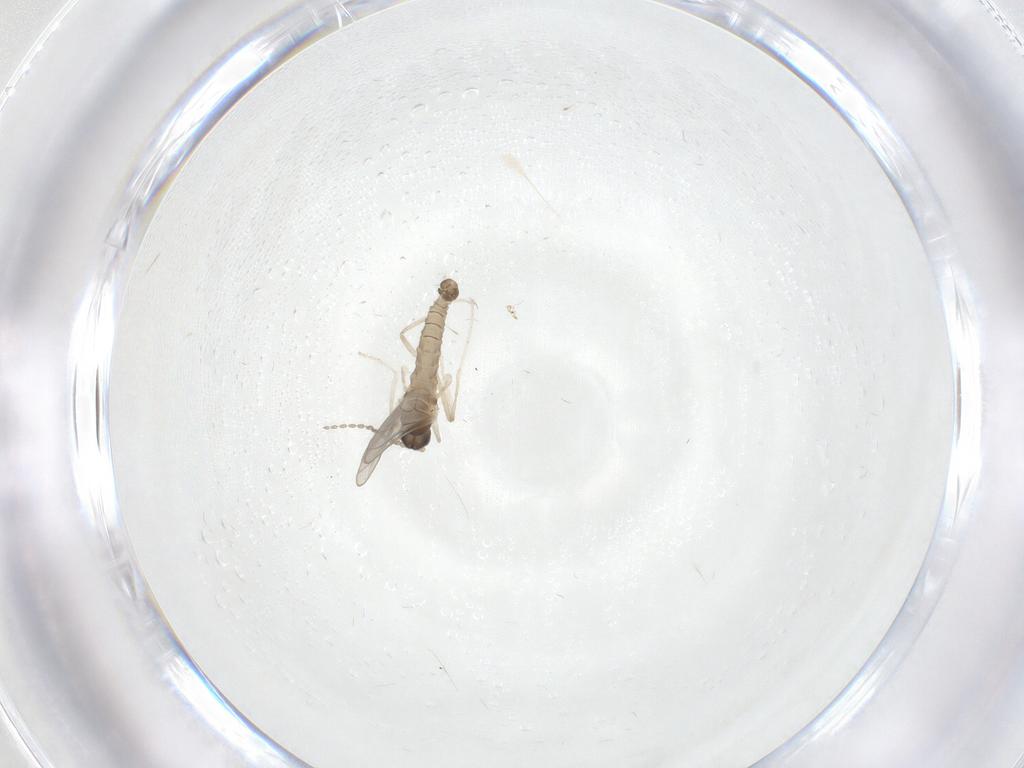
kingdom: Animalia
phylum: Arthropoda
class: Insecta
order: Diptera
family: Cecidomyiidae
